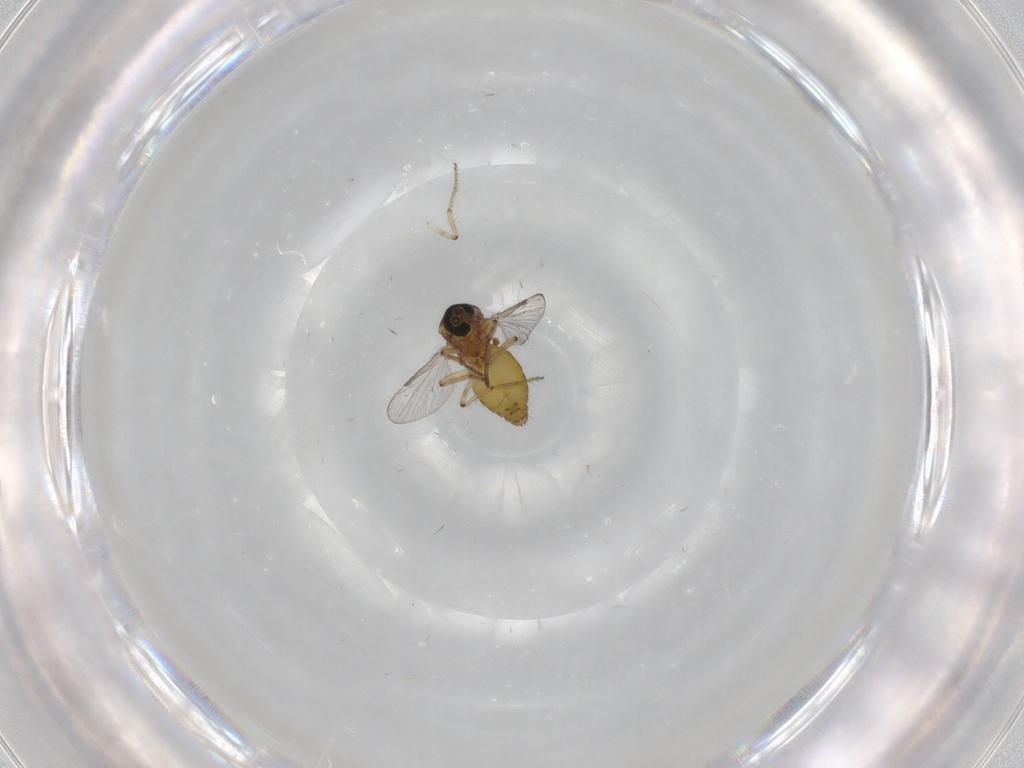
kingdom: Animalia
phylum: Arthropoda
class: Insecta
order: Diptera
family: Ceratopogonidae
